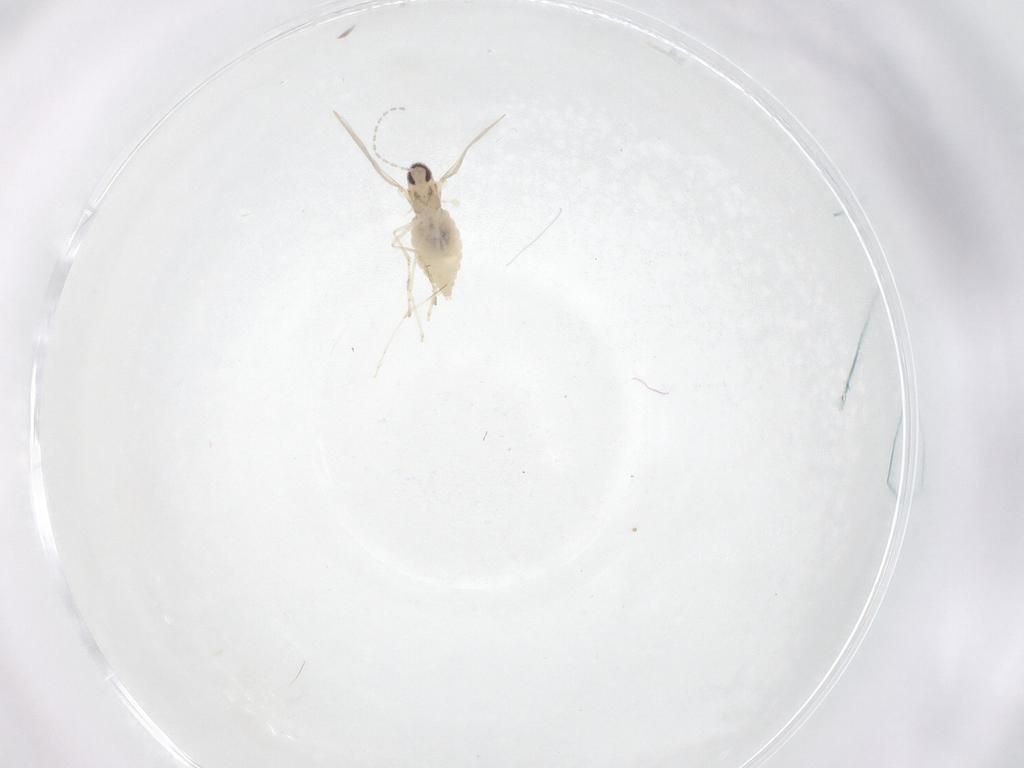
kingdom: Animalia
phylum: Arthropoda
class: Insecta
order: Diptera
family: Cecidomyiidae
